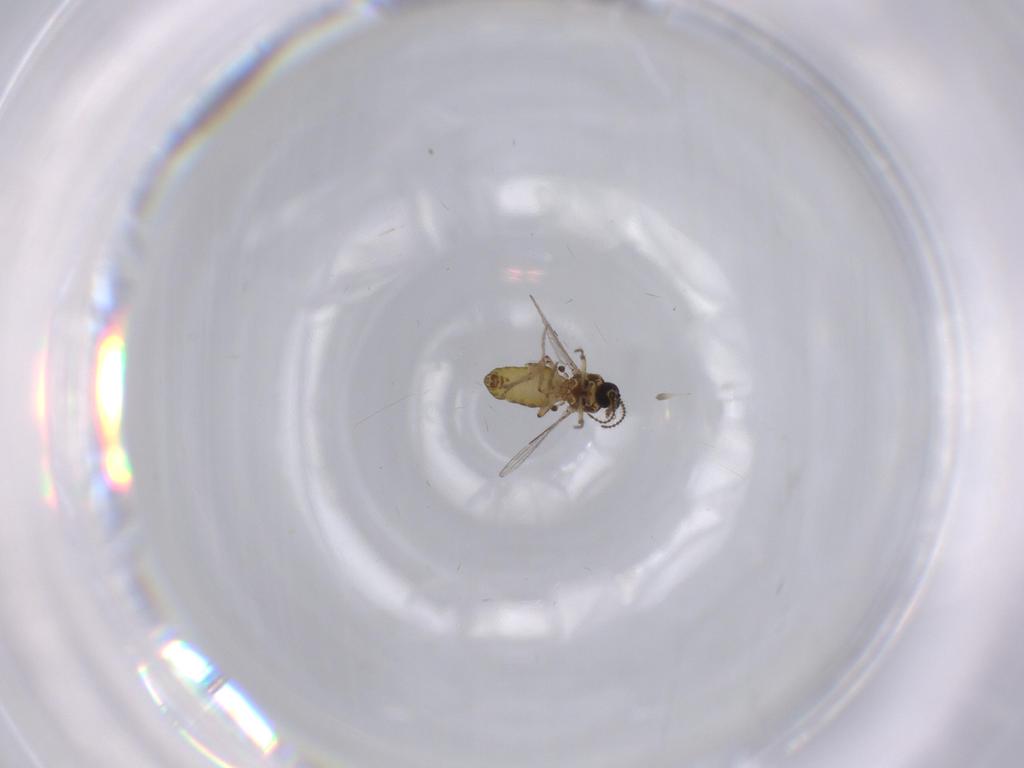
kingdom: Animalia
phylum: Arthropoda
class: Insecta
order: Diptera
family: Ceratopogonidae
